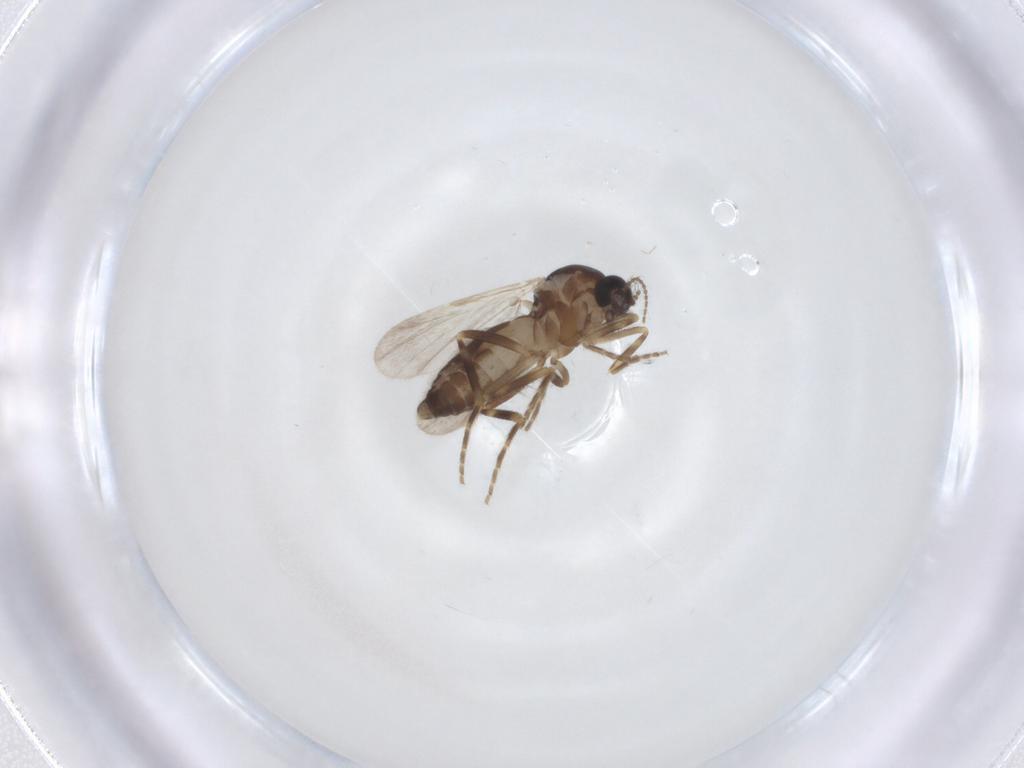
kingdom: Animalia
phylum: Arthropoda
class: Insecta
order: Diptera
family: Ceratopogonidae
